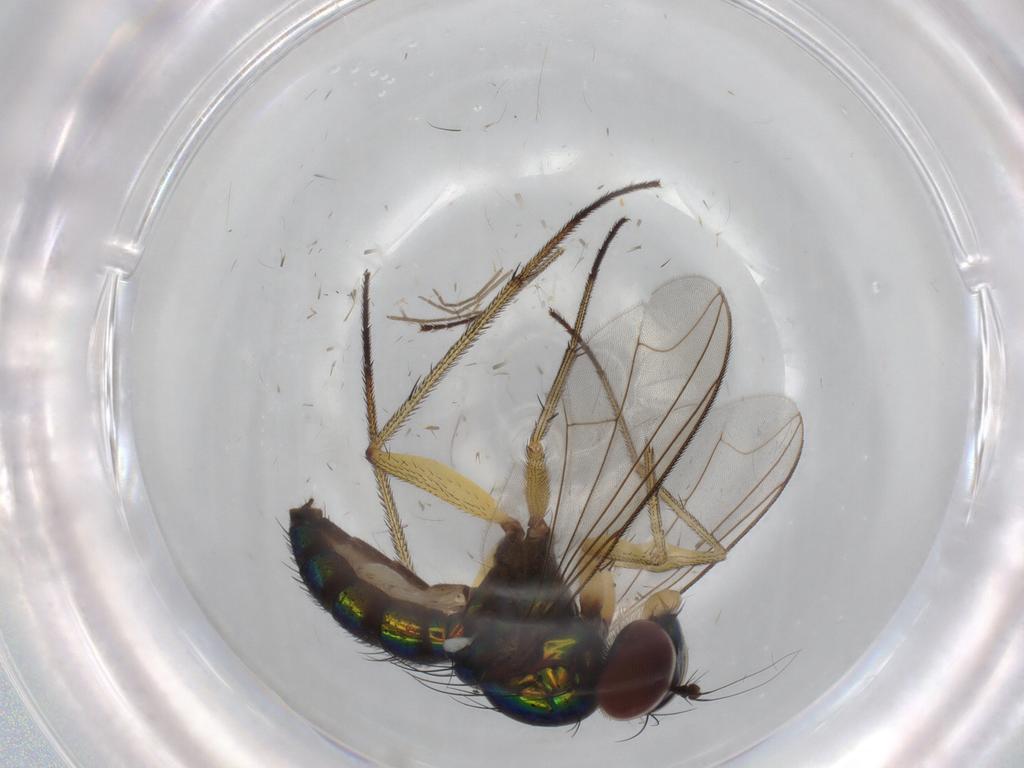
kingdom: Animalia
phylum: Arthropoda
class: Insecta
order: Diptera
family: Dolichopodidae
